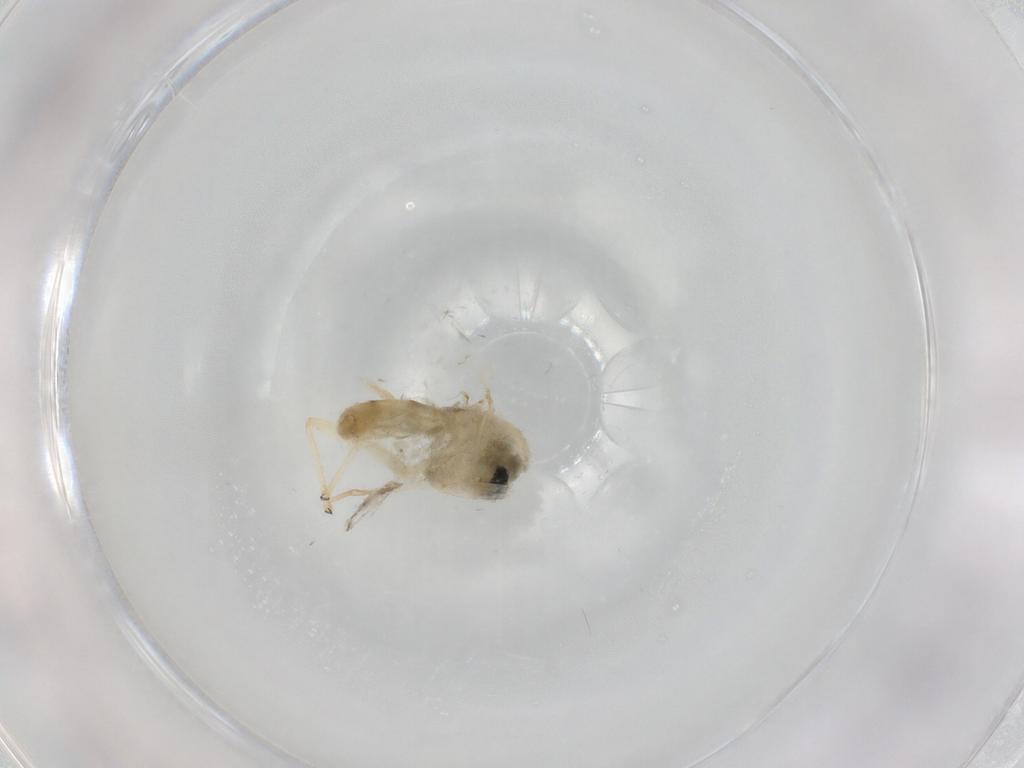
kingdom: Animalia
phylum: Arthropoda
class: Insecta
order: Diptera
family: Chironomidae
